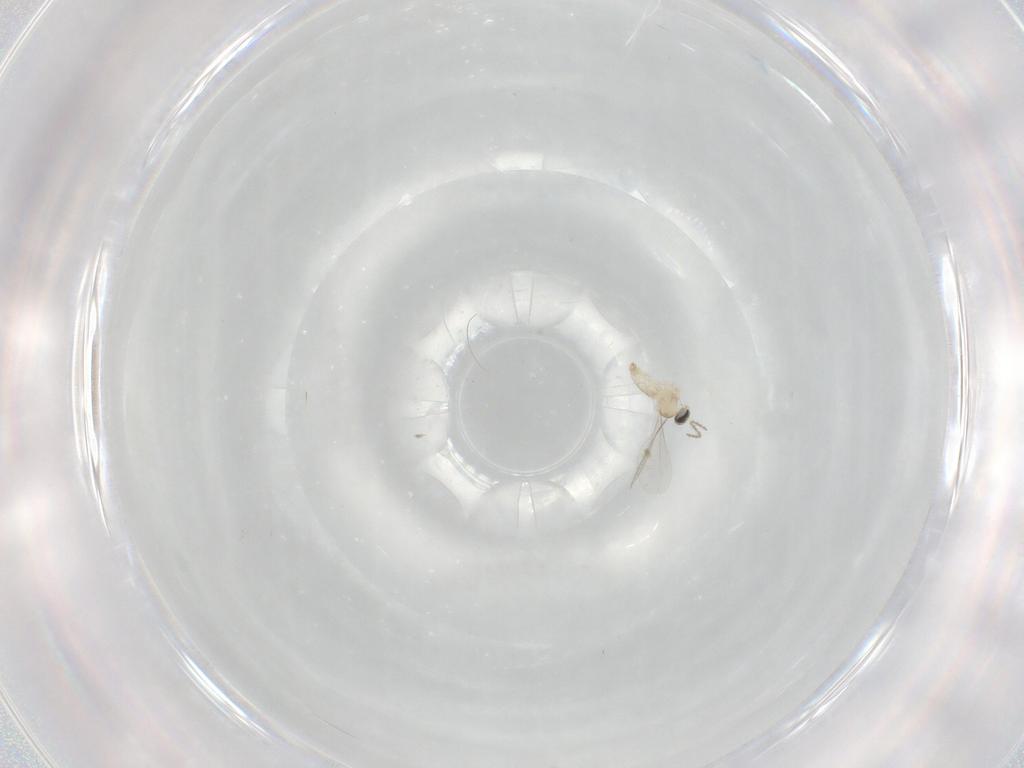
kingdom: Animalia
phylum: Arthropoda
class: Insecta
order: Diptera
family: Cecidomyiidae
